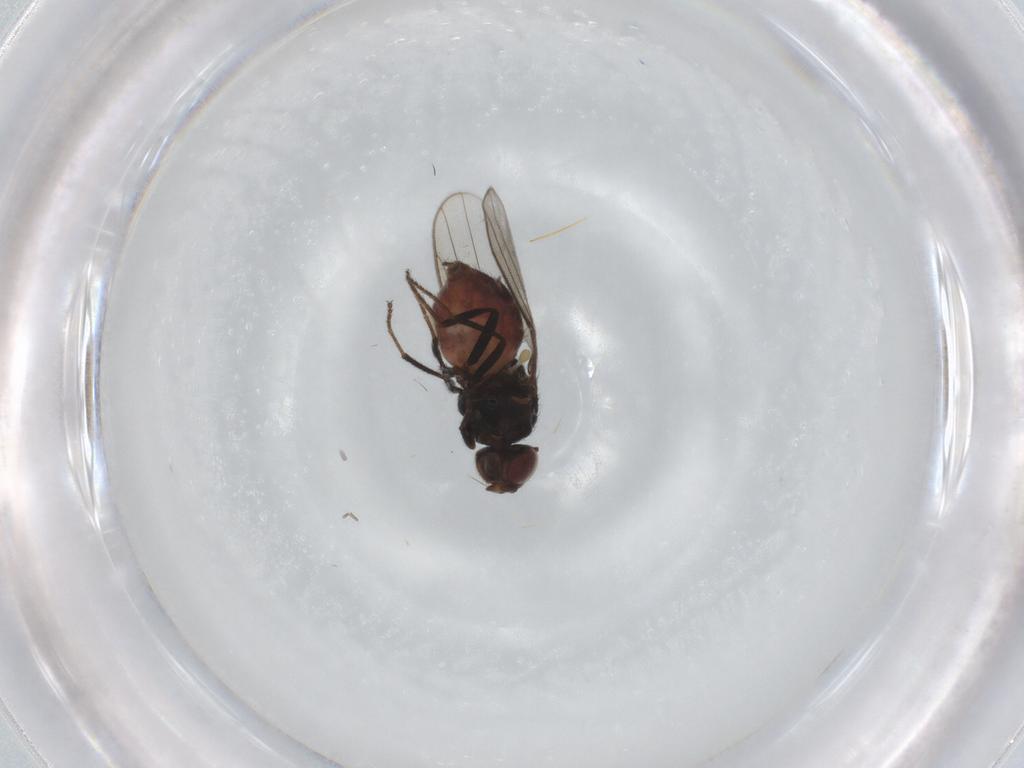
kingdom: Animalia
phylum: Arthropoda
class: Insecta
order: Diptera
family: Chloropidae
